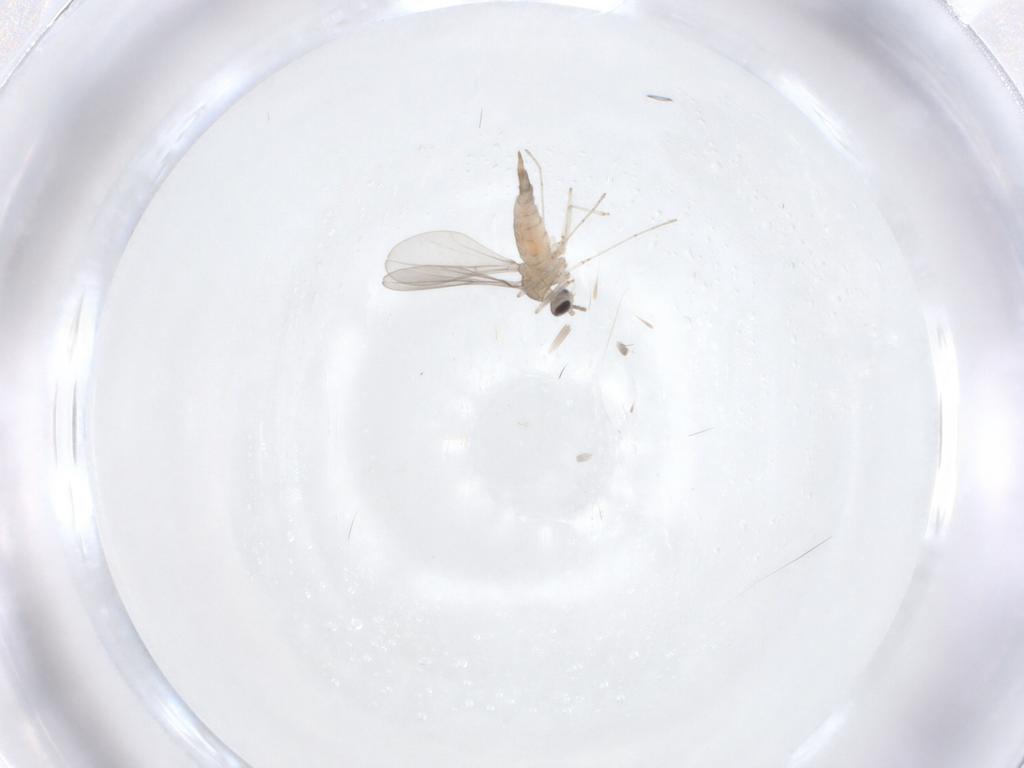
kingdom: Animalia
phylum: Arthropoda
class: Insecta
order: Diptera
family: Cecidomyiidae
